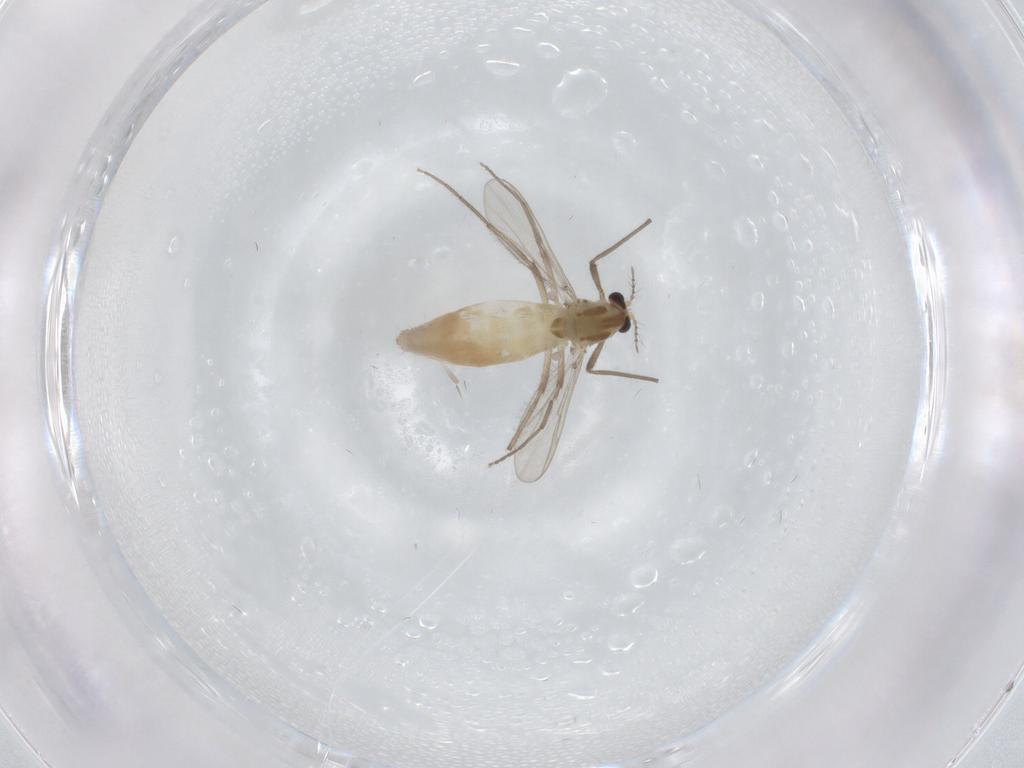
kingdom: Animalia
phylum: Arthropoda
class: Insecta
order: Diptera
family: Chironomidae
